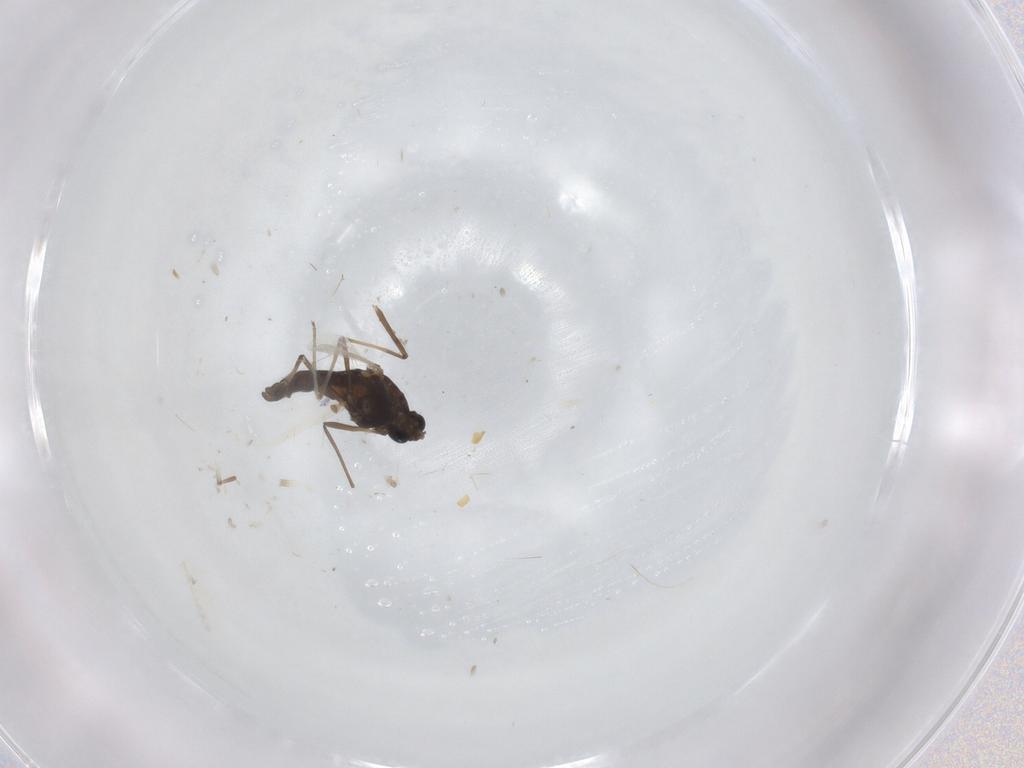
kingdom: Animalia
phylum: Arthropoda
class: Insecta
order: Diptera
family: Chironomidae
